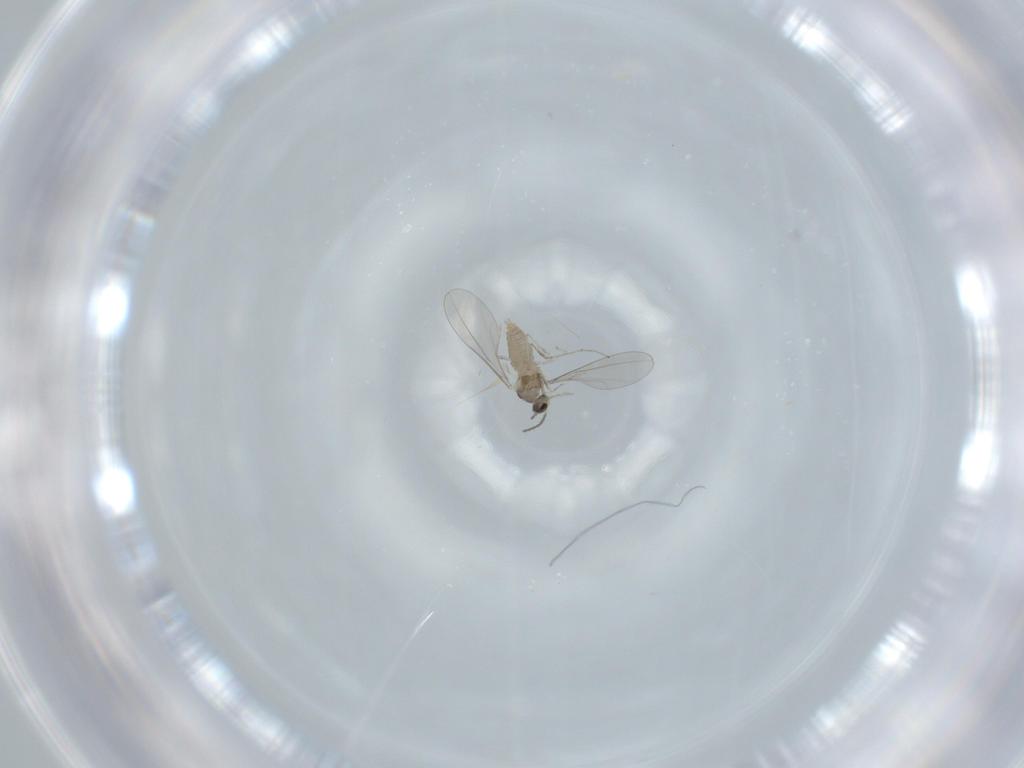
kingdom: Animalia
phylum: Arthropoda
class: Insecta
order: Diptera
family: Cecidomyiidae
